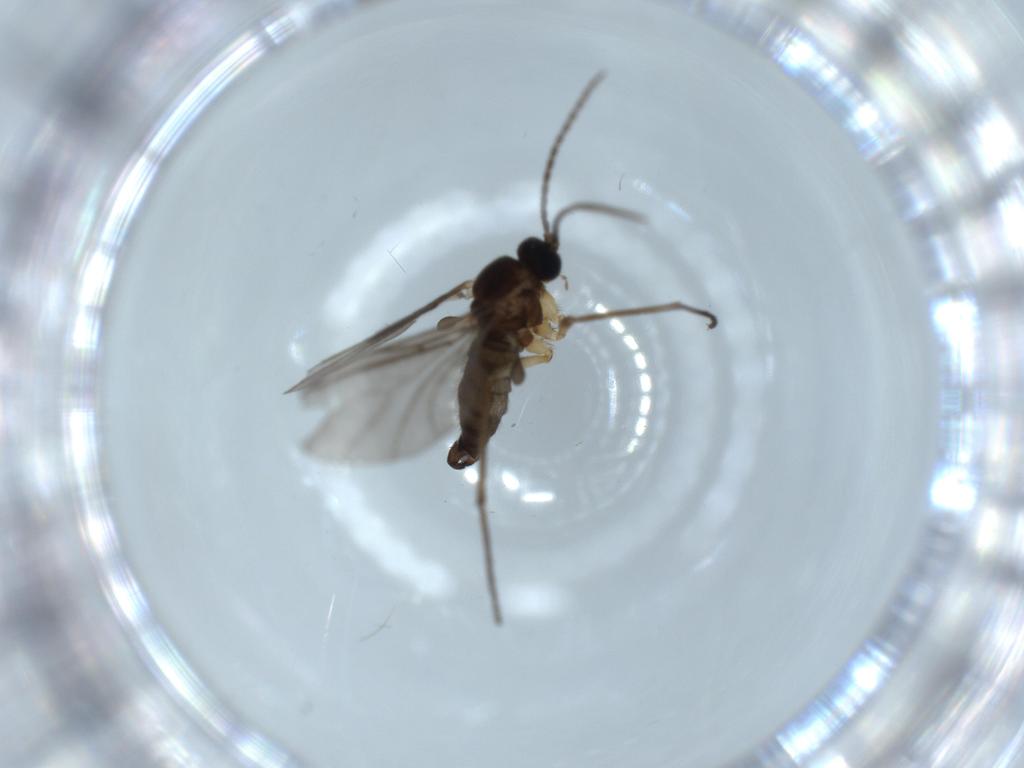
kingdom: Animalia
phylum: Arthropoda
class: Insecta
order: Diptera
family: Sciaridae
